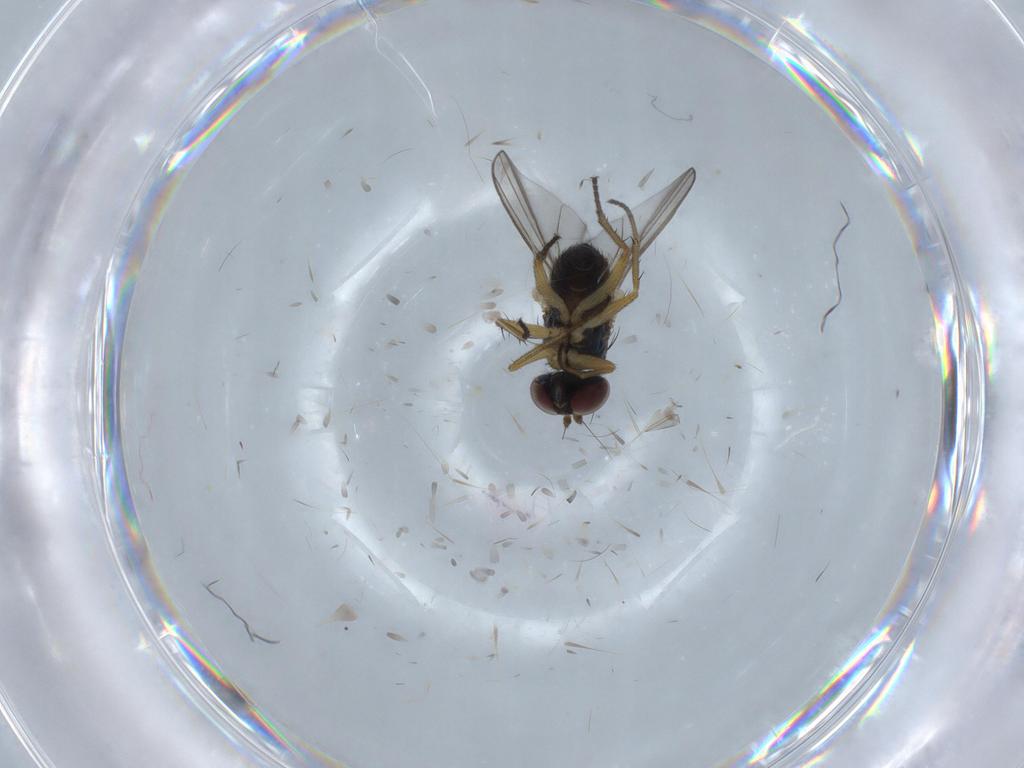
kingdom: Animalia
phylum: Arthropoda
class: Insecta
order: Diptera
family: Chironomidae
